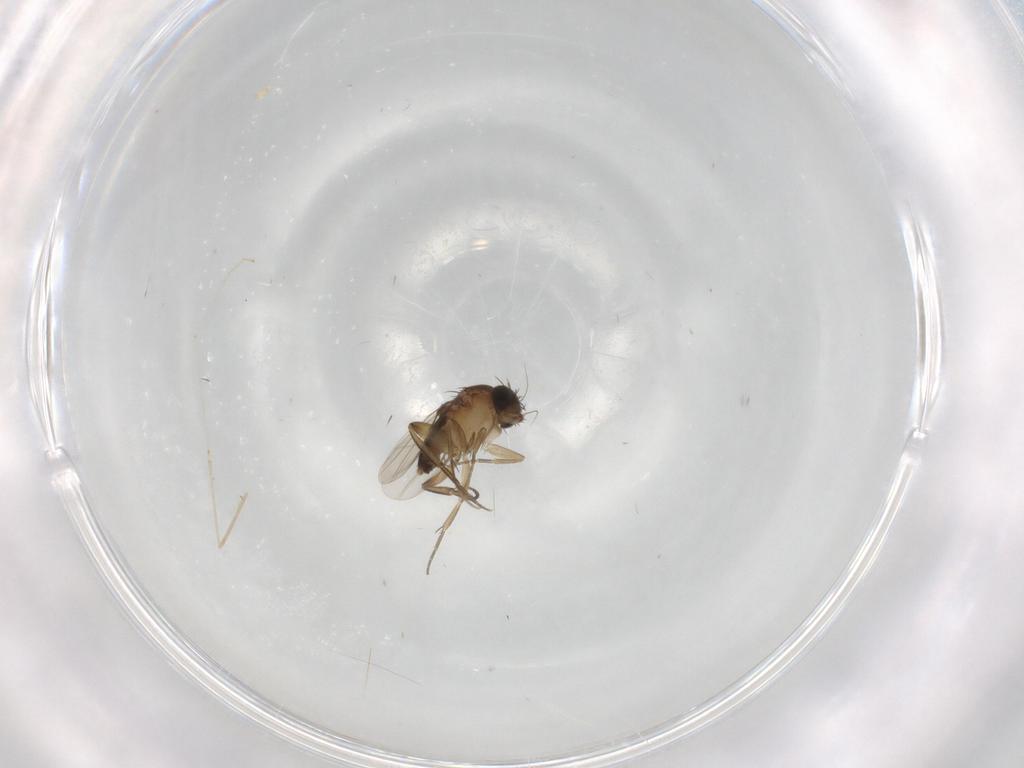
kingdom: Animalia
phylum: Arthropoda
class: Insecta
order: Diptera
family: Phoridae
